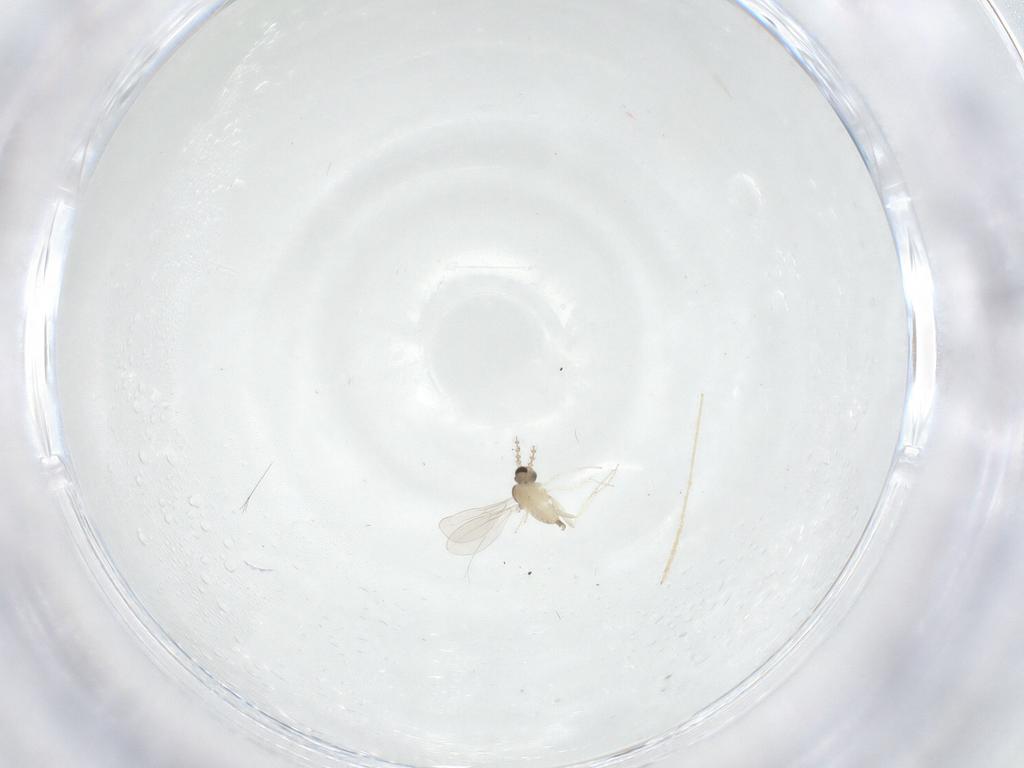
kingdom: Animalia
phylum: Arthropoda
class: Insecta
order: Diptera
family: Cecidomyiidae
